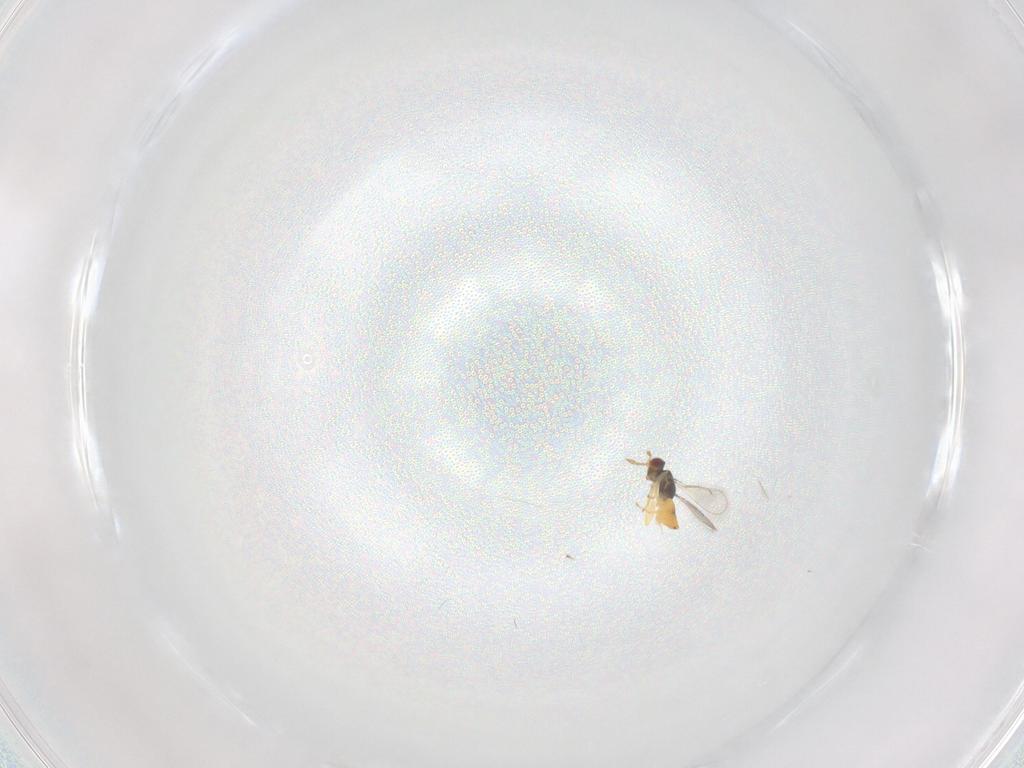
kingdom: Animalia
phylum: Arthropoda
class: Insecta
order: Hymenoptera
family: Eulophidae
